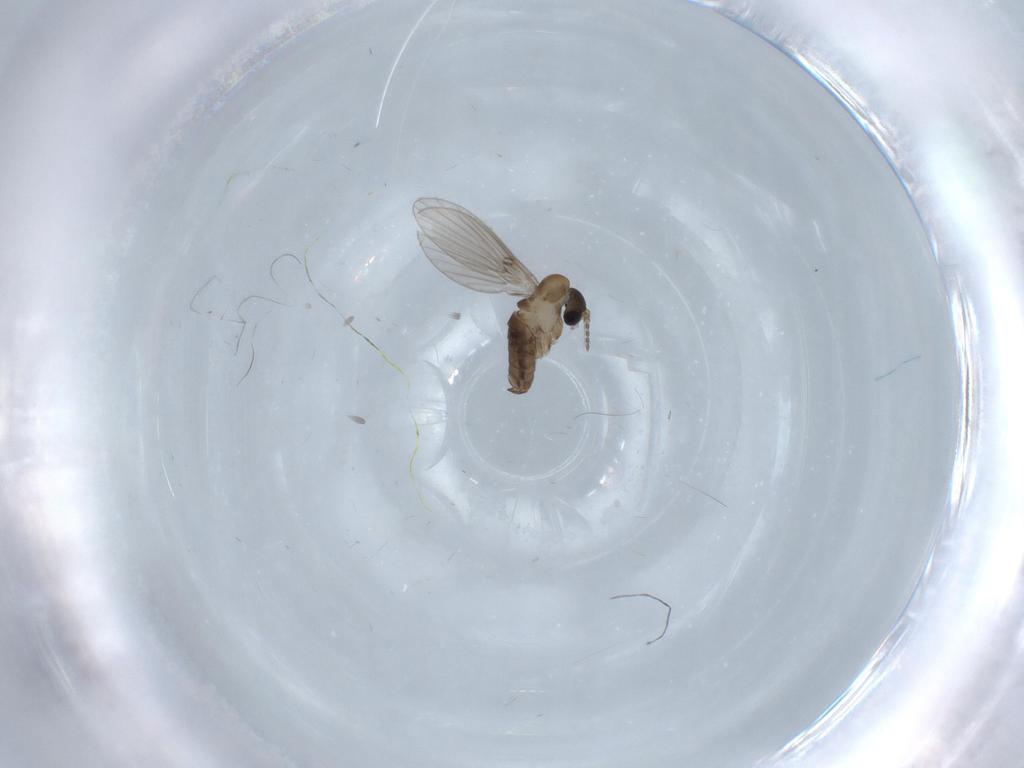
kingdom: Animalia
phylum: Arthropoda
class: Insecta
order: Diptera
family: Psychodidae
